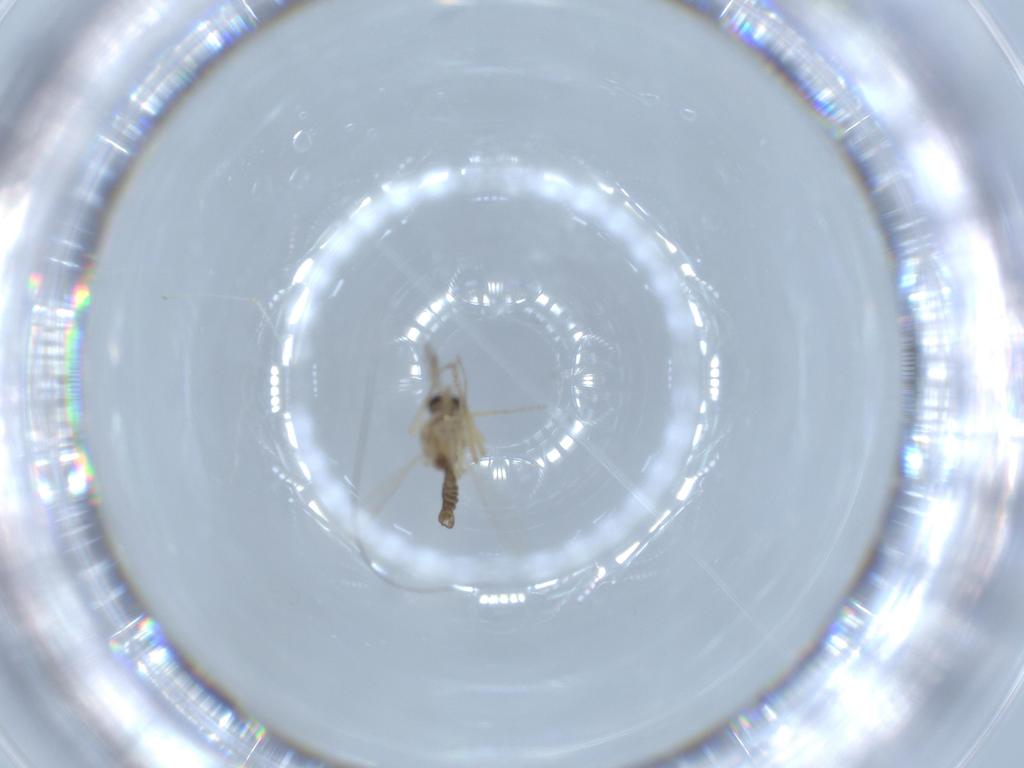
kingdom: Animalia
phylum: Arthropoda
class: Insecta
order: Diptera
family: Ceratopogonidae
